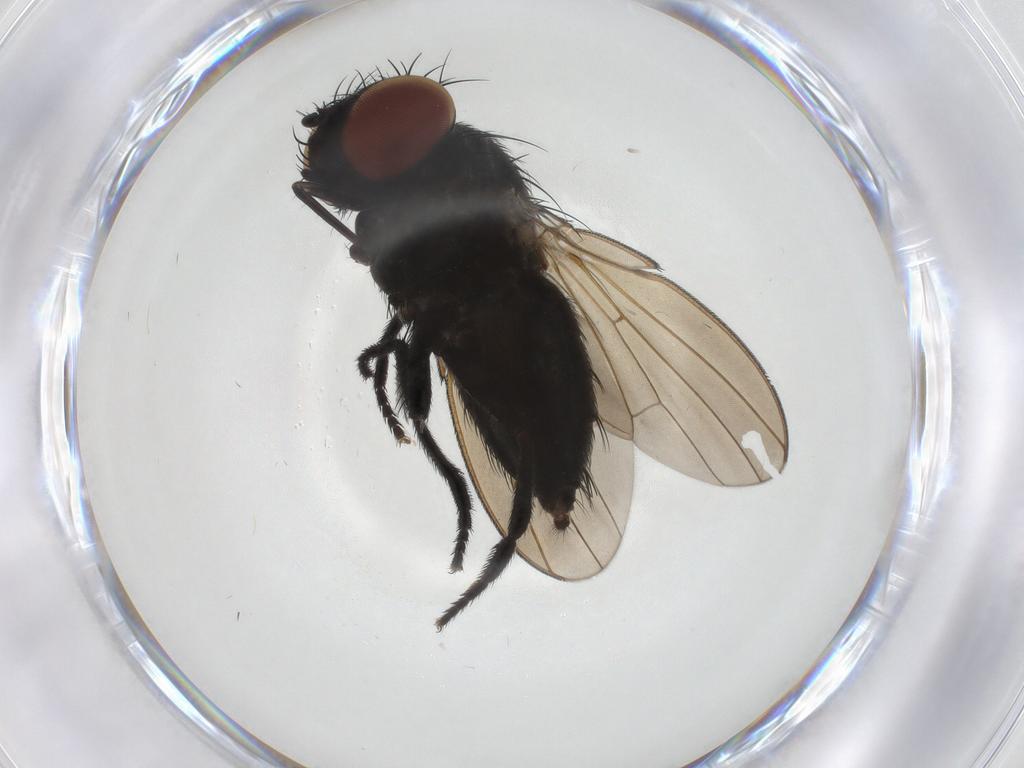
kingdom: Animalia
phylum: Arthropoda
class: Insecta
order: Diptera
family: Milichiidae
